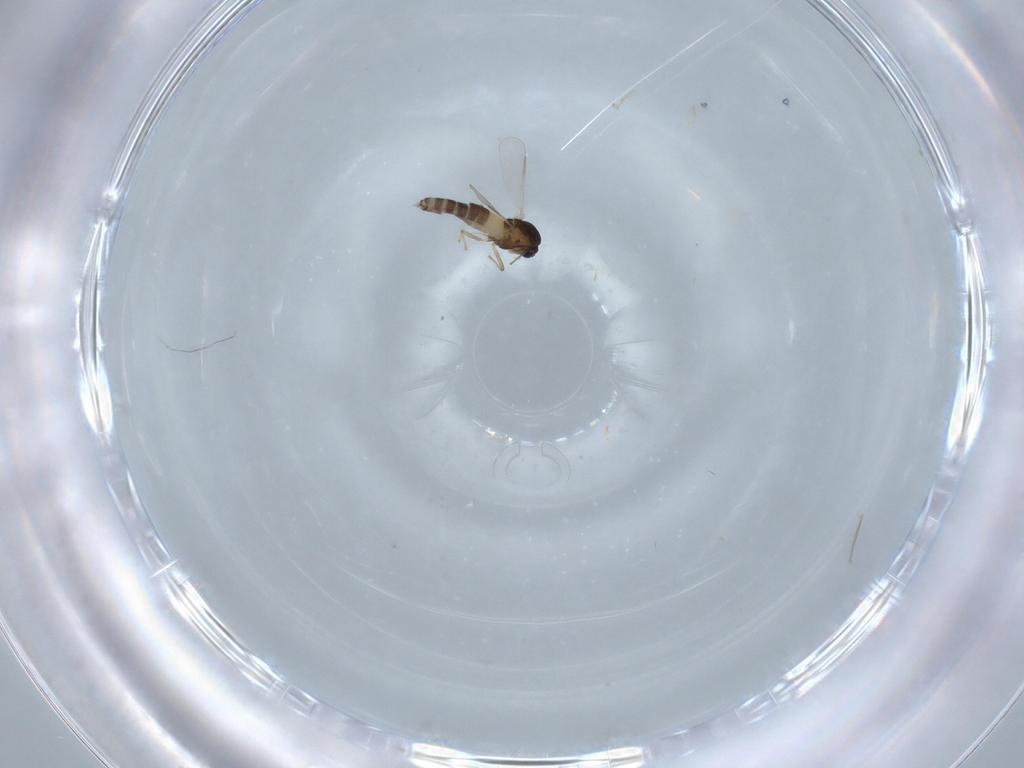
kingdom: Animalia
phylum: Arthropoda
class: Insecta
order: Diptera
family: Chironomidae
